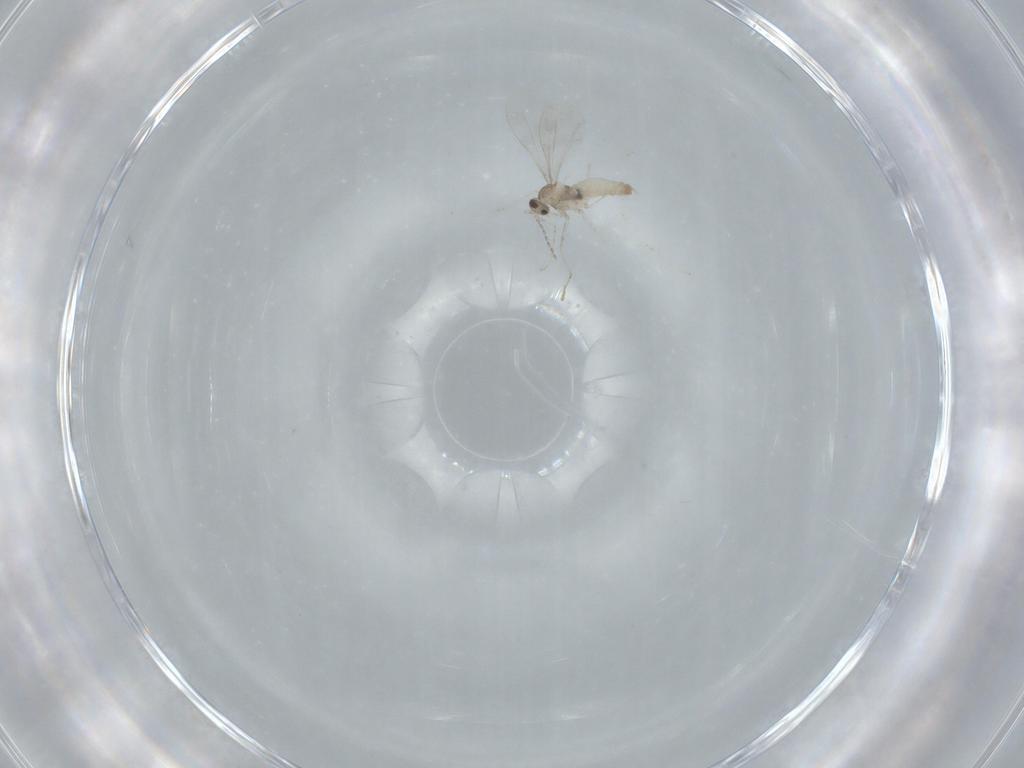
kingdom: Animalia
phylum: Arthropoda
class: Insecta
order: Diptera
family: Cecidomyiidae
